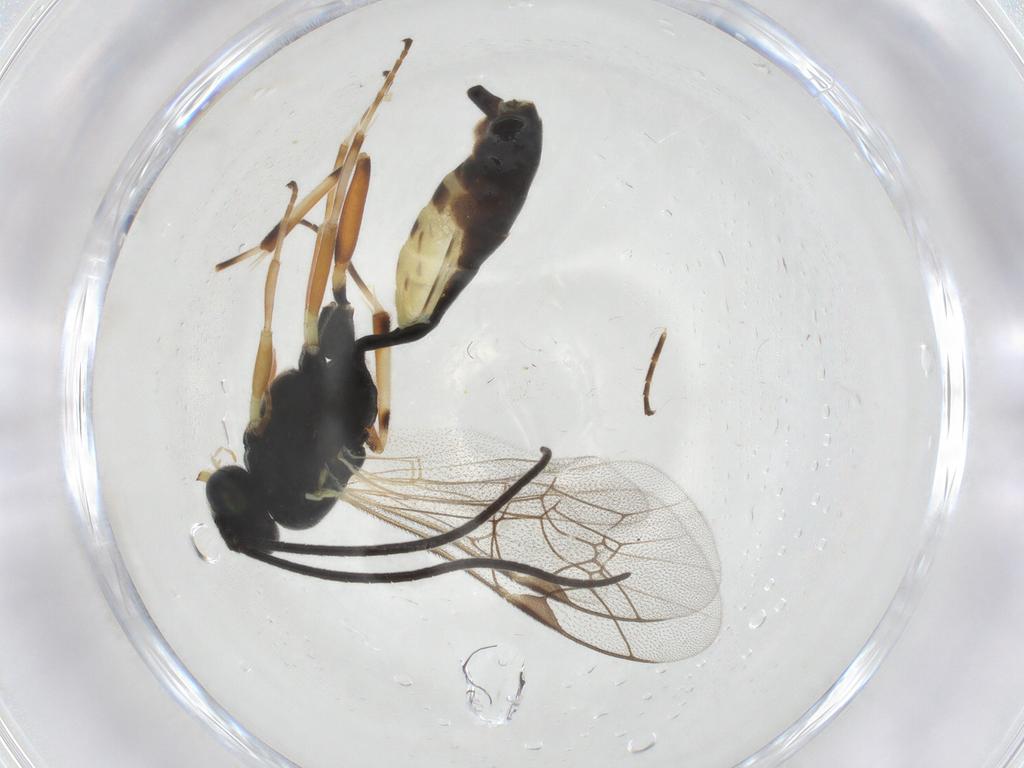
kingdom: Animalia
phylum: Arthropoda
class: Insecta
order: Hymenoptera
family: Ichneumonidae
